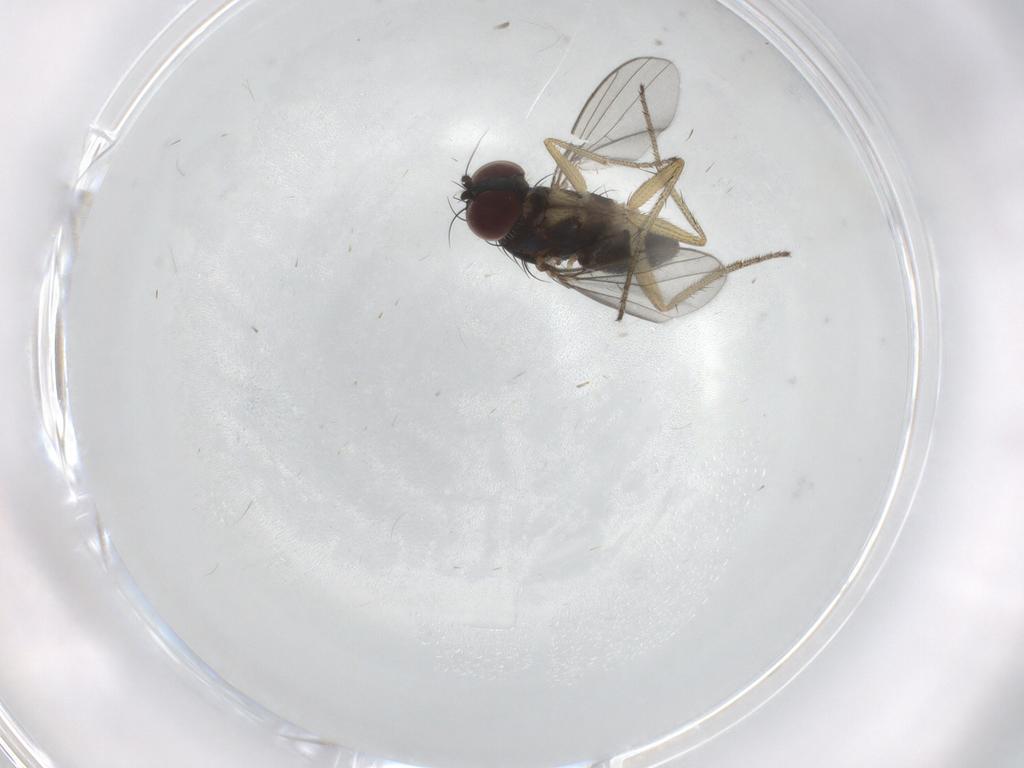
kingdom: Animalia
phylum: Arthropoda
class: Insecta
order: Diptera
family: Dolichopodidae
